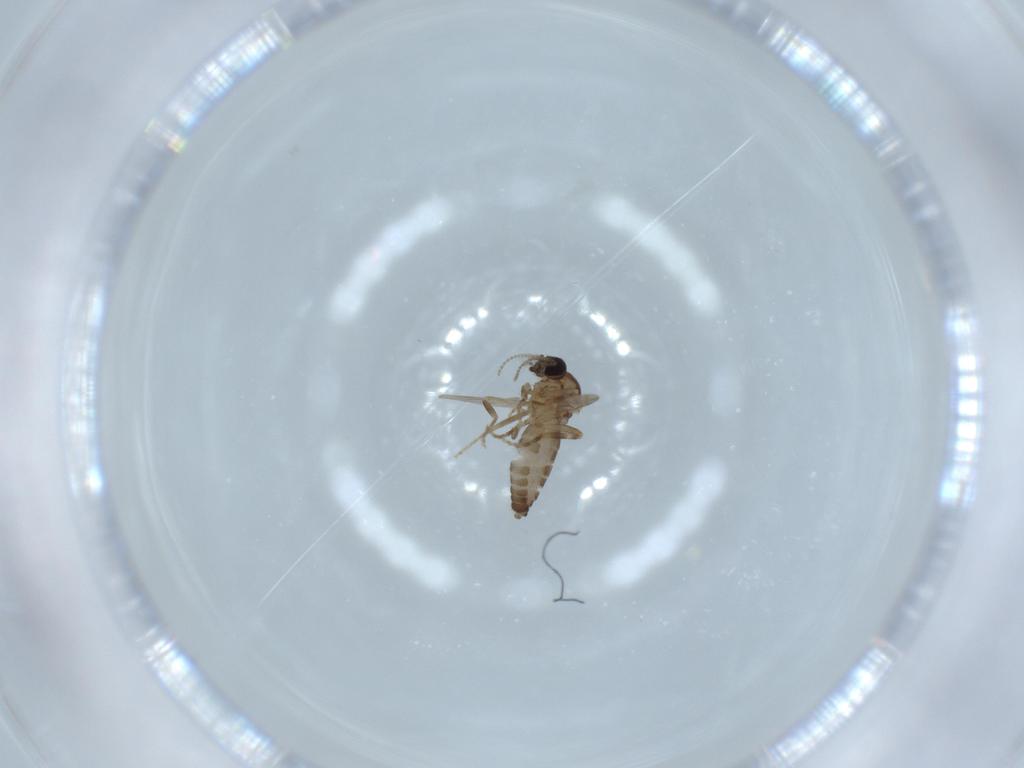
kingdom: Animalia
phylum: Arthropoda
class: Insecta
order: Diptera
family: Ceratopogonidae
